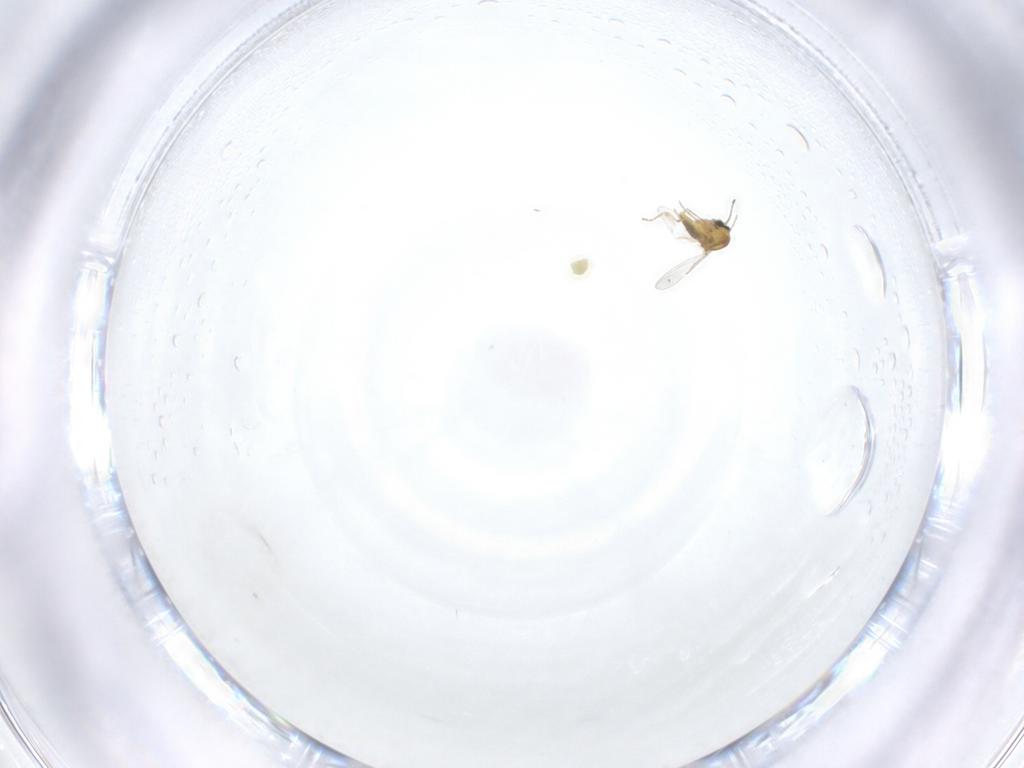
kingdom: Animalia
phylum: Arthropoda
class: Insecta
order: Diptera
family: Ceratopogonidae
